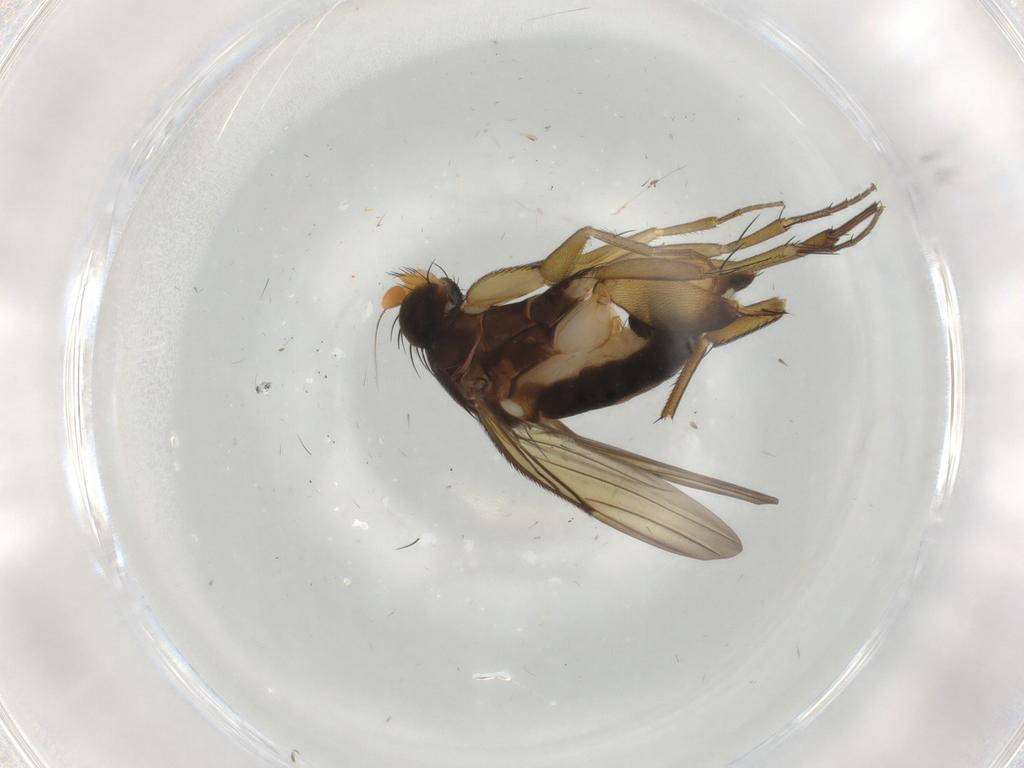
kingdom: Animalia
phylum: Arthropoda
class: Insecta
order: Diptera
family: Phoridae
